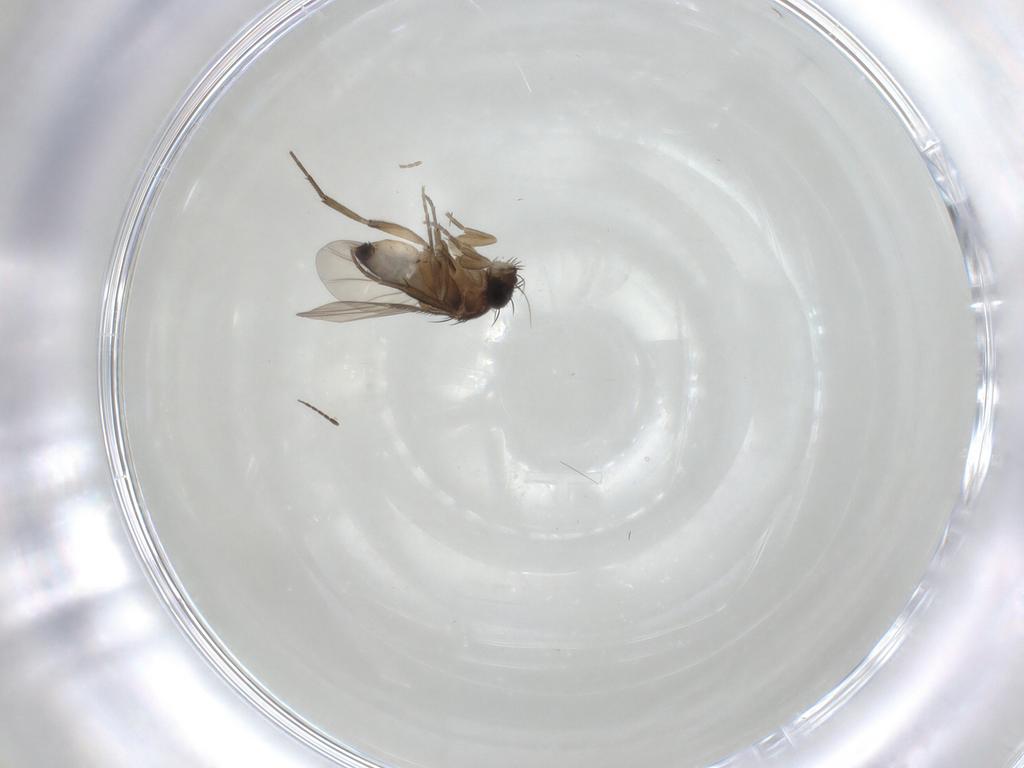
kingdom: Animalia
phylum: Arthropoda
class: Insecta
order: Diptera
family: Phoridae
